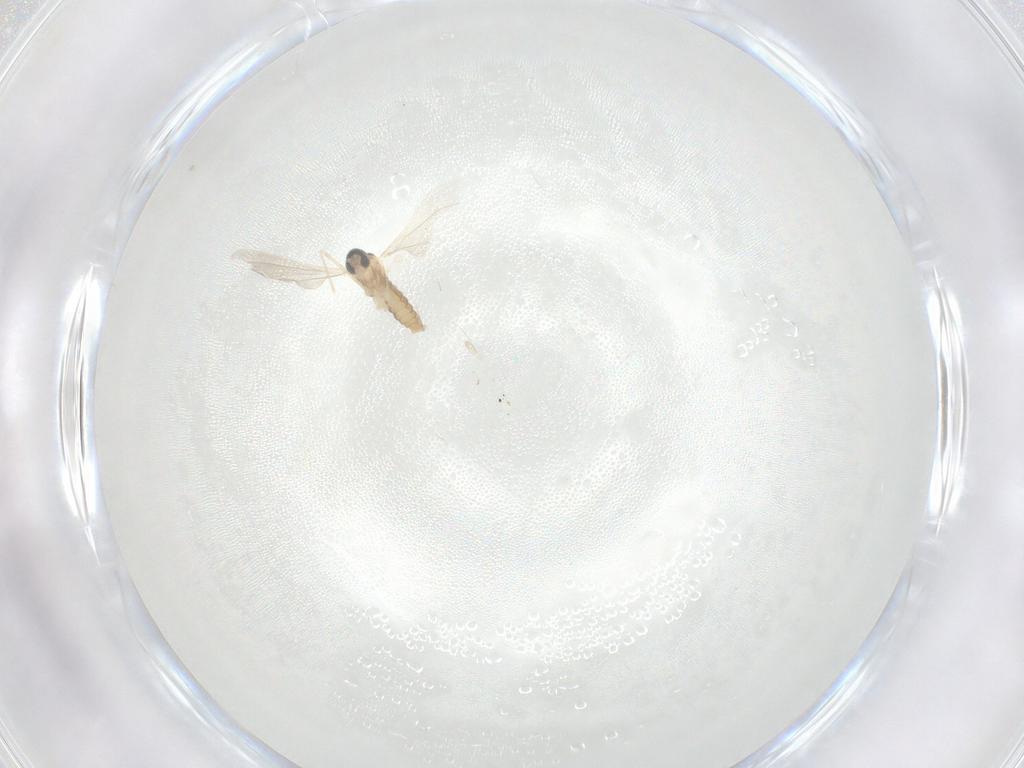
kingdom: Animalia
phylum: Arthropoda
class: Insecta
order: Diptera
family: Cecidomyiidae
